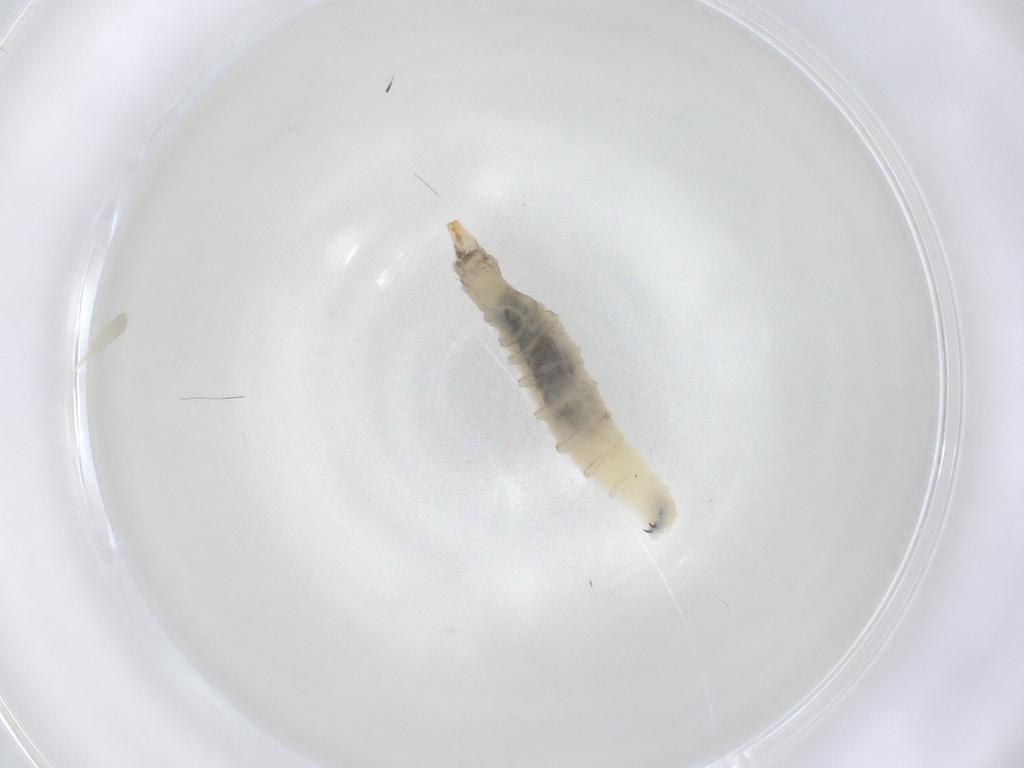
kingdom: Animalia
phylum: Arthropoda
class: Insecta
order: Diptera
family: Drosophilidae
